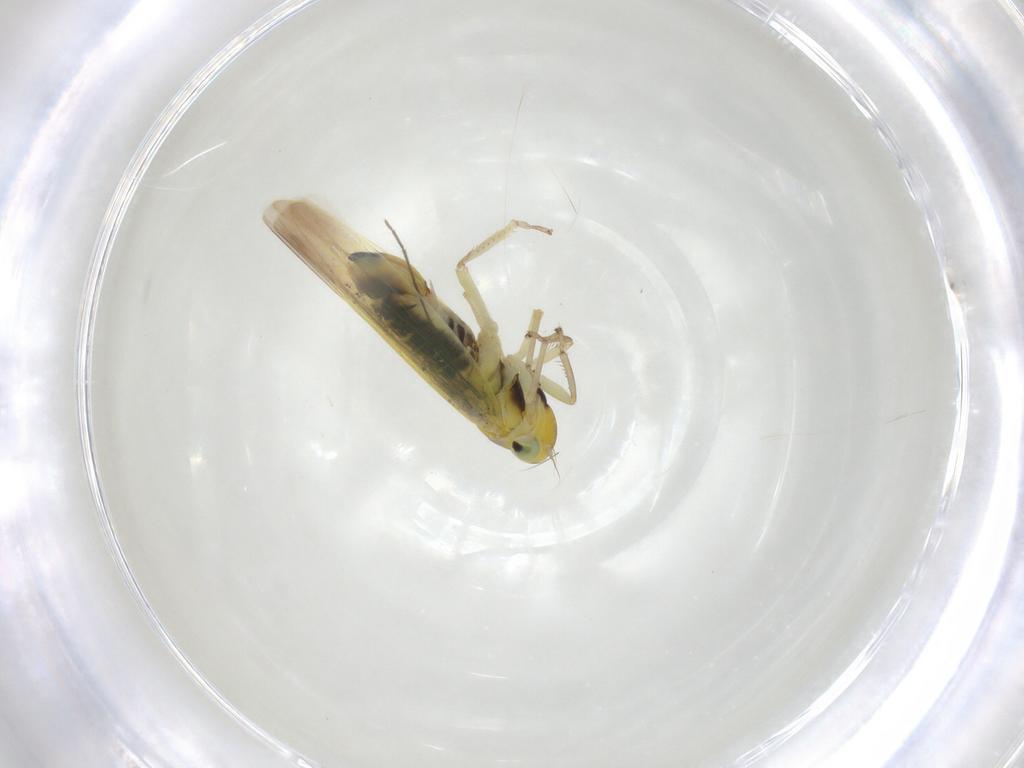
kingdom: Animalia
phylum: Arthropoda
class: Insecta
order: Hemiptera
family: Cicadellidae
